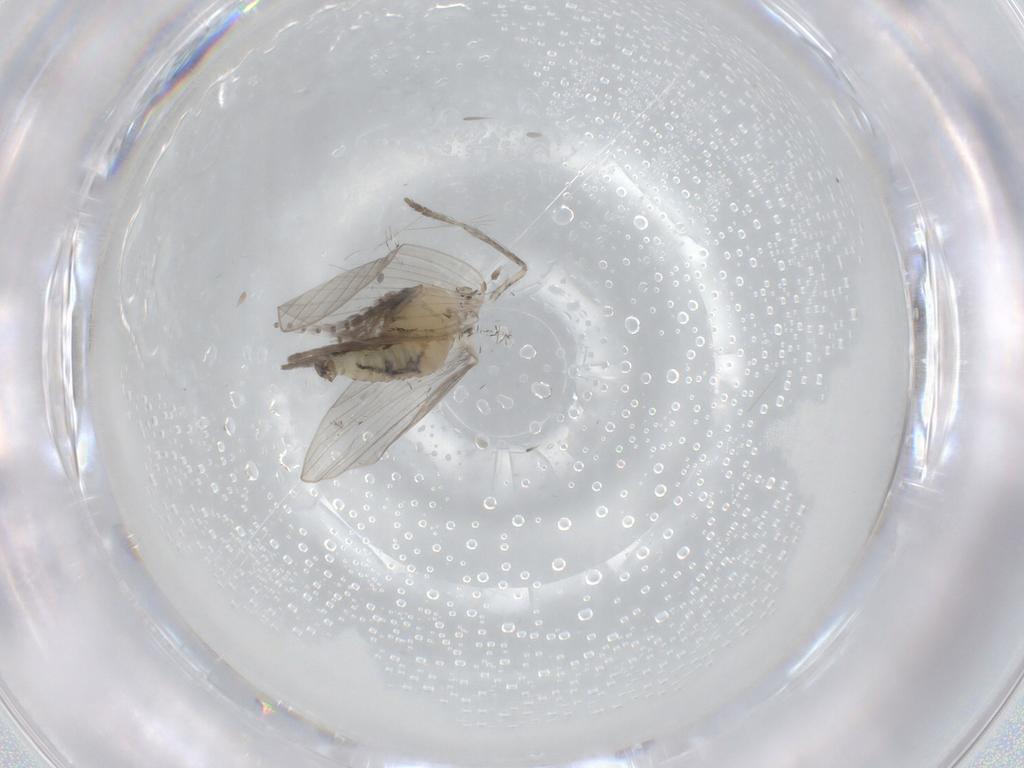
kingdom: Animalia
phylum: Arthropoda
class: Insecta
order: Diptera
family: Psychodidae
